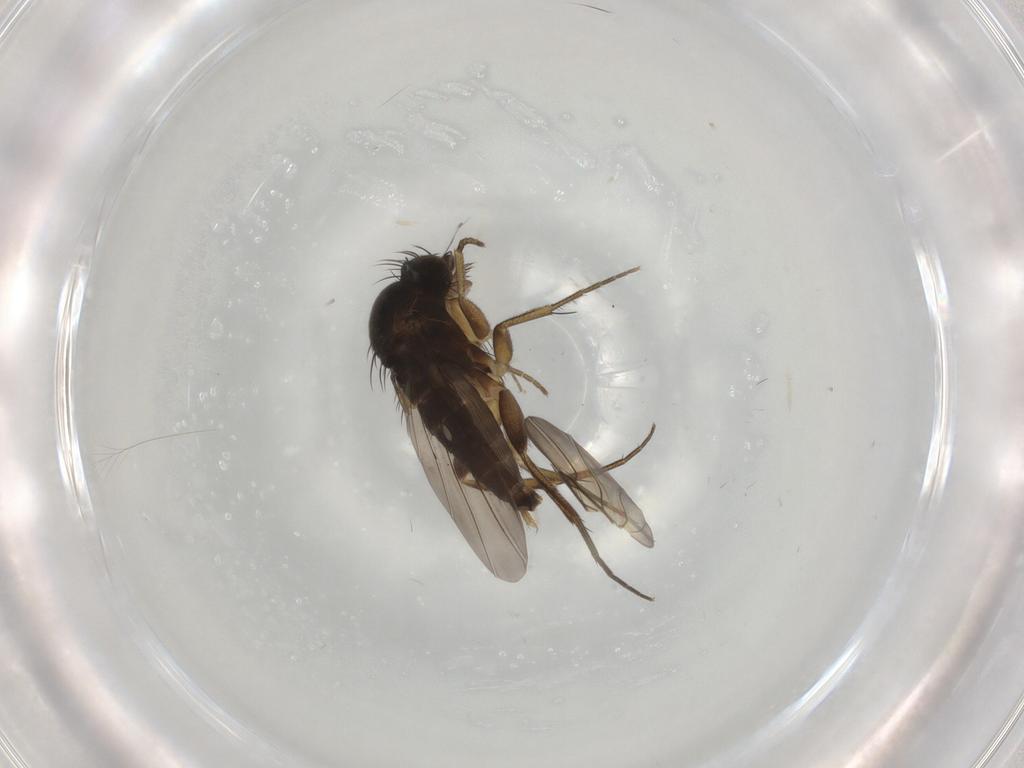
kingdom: Animalia
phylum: Arthropoda
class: Insecta
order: Diptera
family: Phoridae
